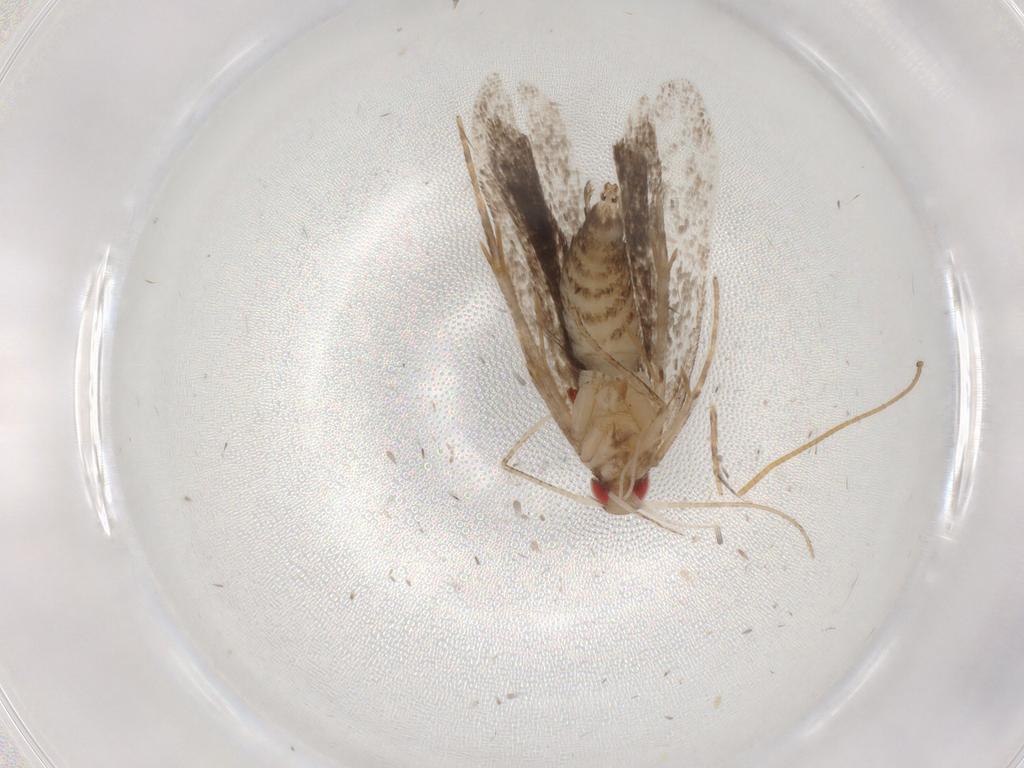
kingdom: Animalia
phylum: Arthropoda
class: Insecta
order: Lepidoptera
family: Gelechiidae
